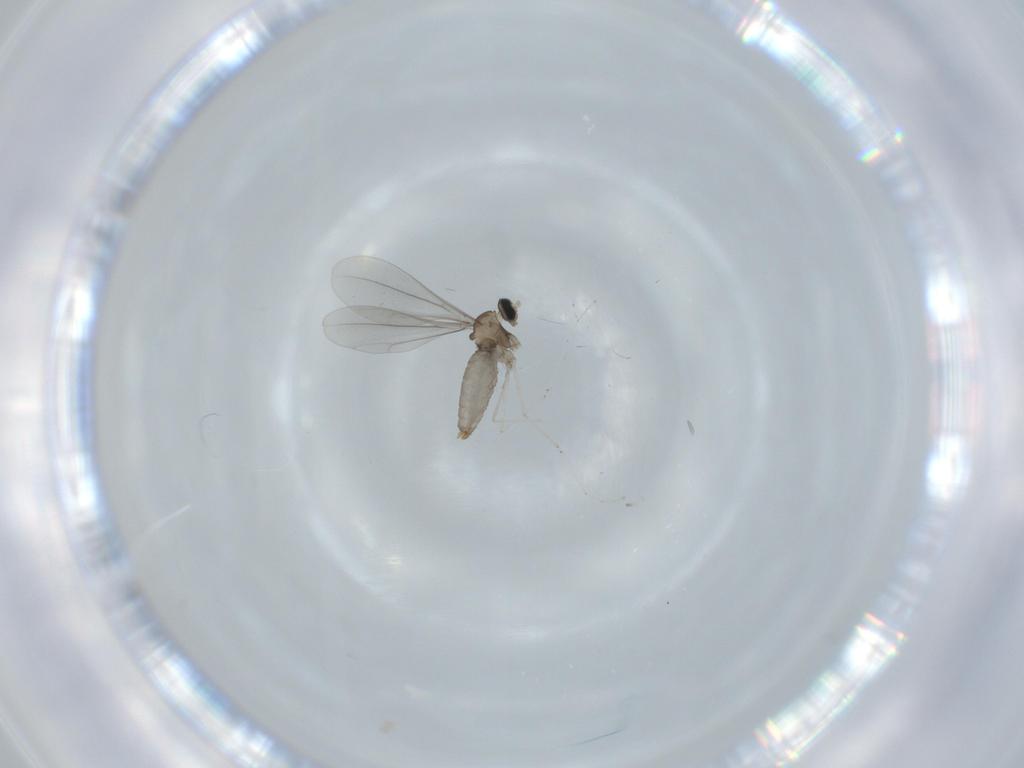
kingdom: Animalia
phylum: Arthropoda
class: Insecta
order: Diptera
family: Cecidomyiidae
